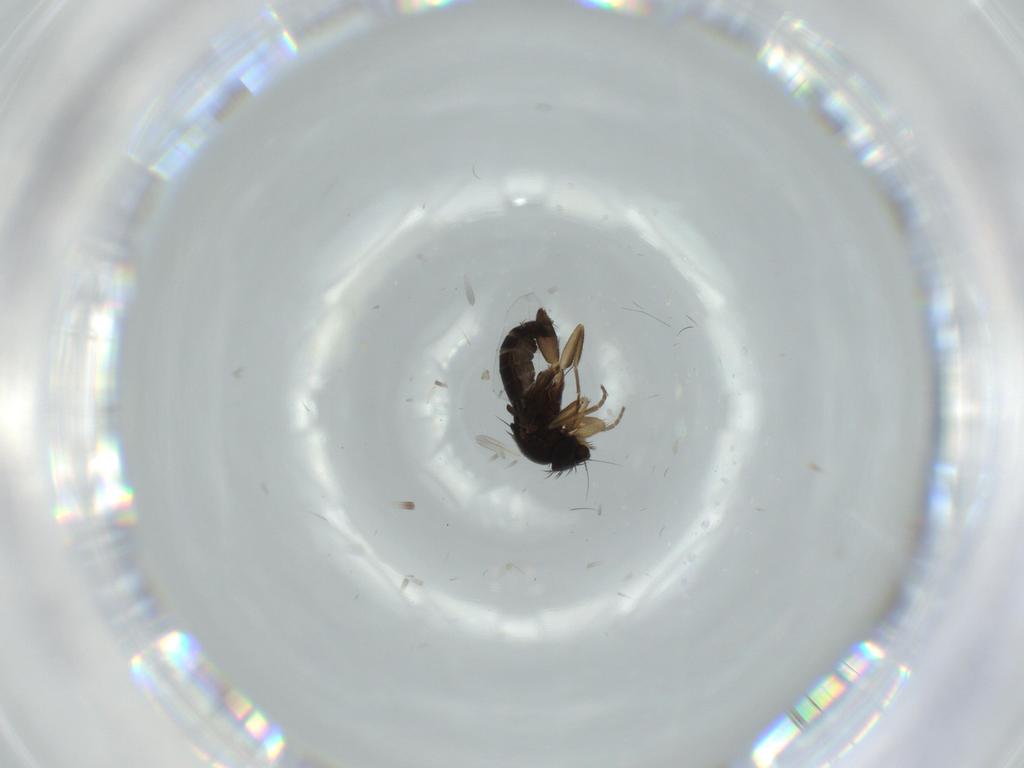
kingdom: Animalia
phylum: Arthropoda
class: Insecta
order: Diptera
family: Phoridae
